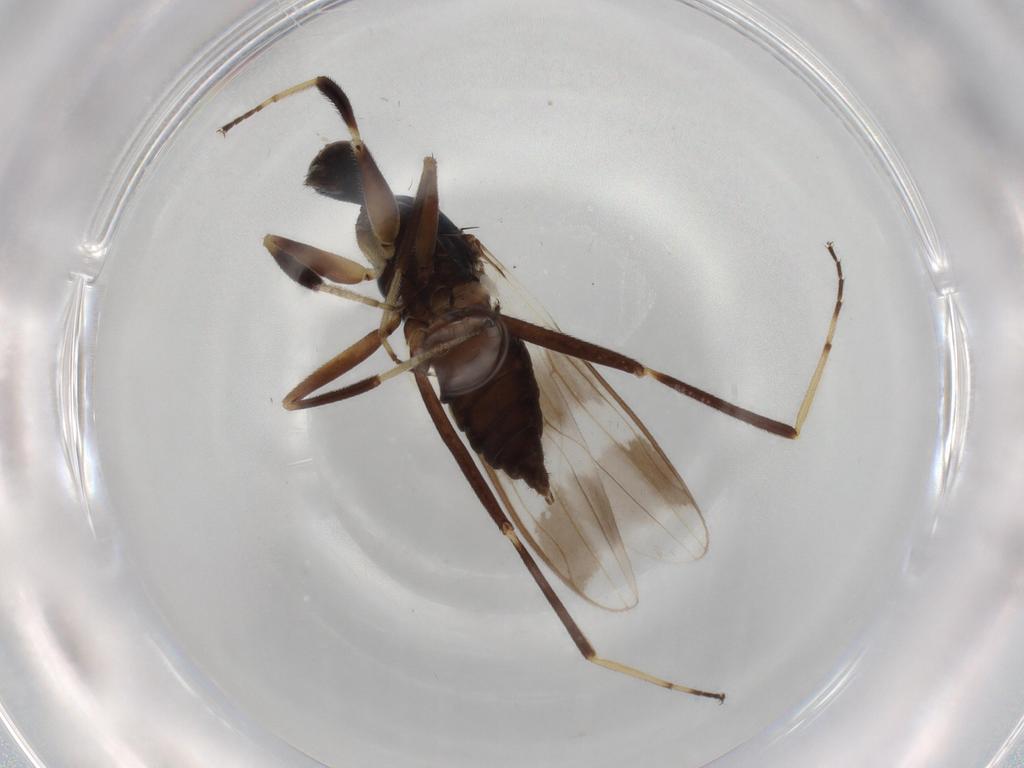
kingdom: Animalia
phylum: Arthropoda
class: Insecta
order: Diptera
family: Hybotidae
